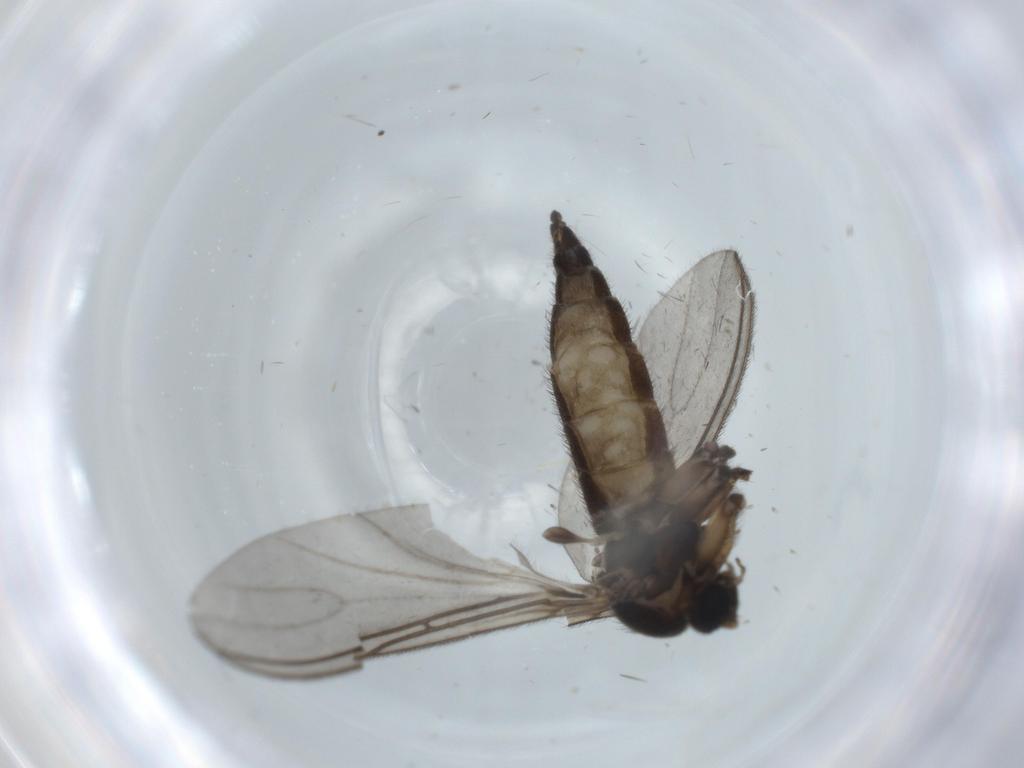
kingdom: Animalia
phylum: Arthropoda
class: Insecta
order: Diptera
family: Sciaridae
